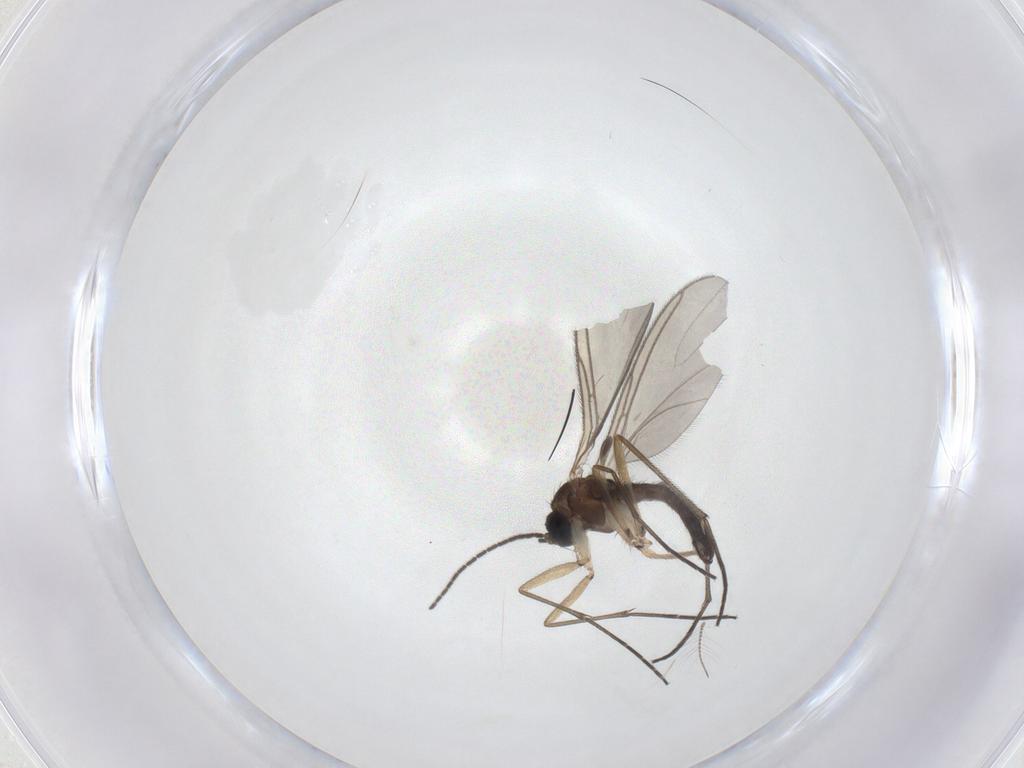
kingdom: Animalia
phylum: Arthropoda
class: Insecta
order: Diptera
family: Sciaridae
